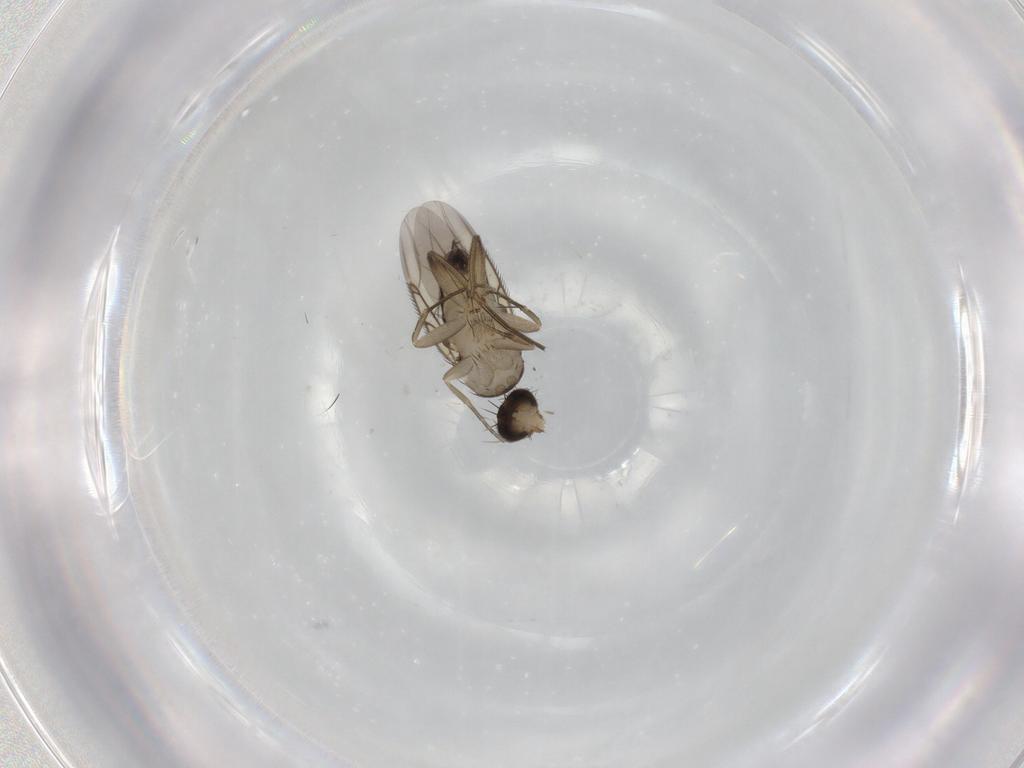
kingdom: Animalia
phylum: Arthropoda
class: Insecta
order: Diptera
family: Phoridae
